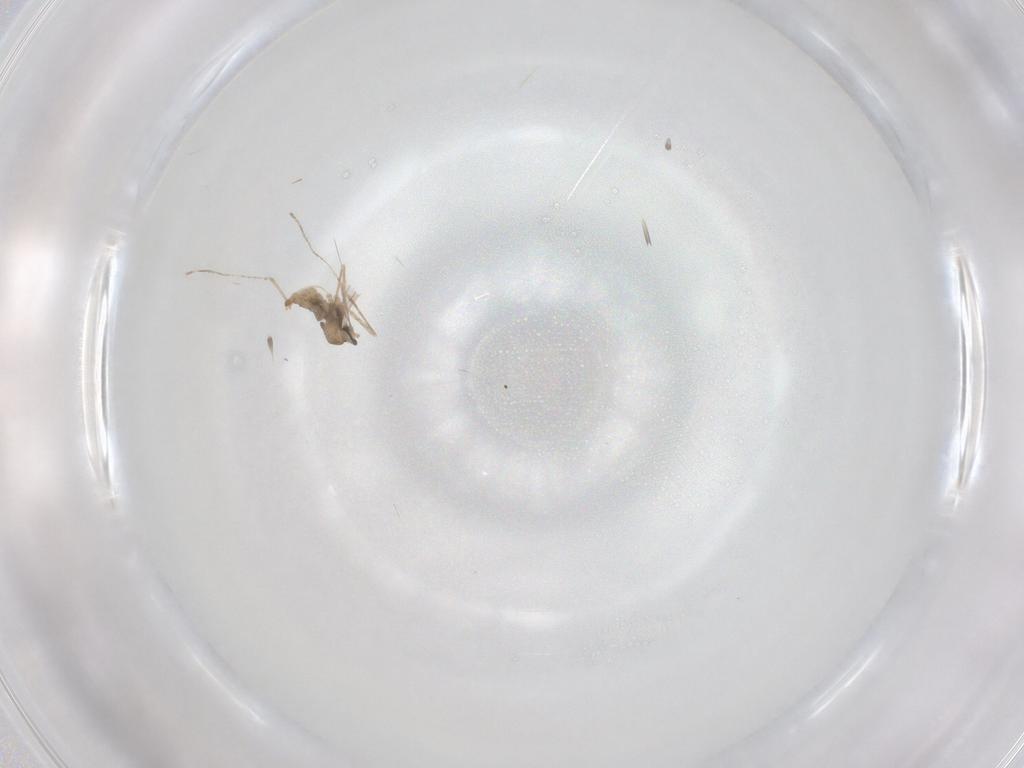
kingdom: Animalia
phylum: Arthropoda
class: Insecta
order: Diptera
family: Cecidomyiidae
